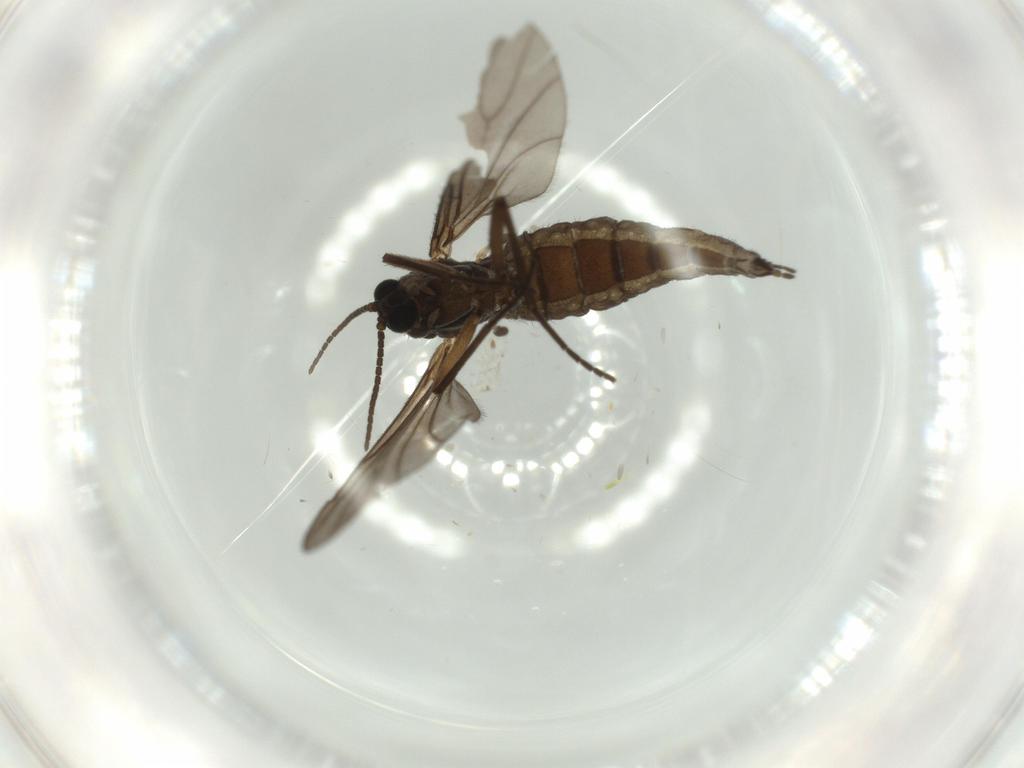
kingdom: Animalia
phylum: Arthropoda
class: Insecta
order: Diptera
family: Sciaridae
